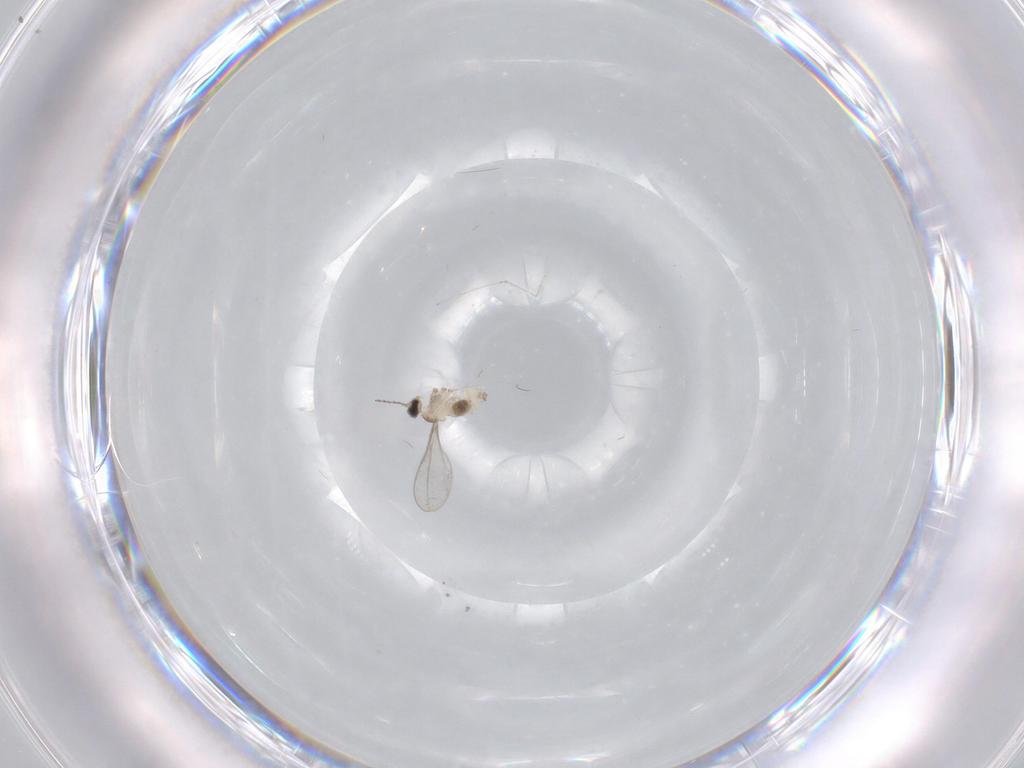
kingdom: Animalia
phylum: Arthropoda
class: Insecta
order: Diptera
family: Cecidomyiidae
